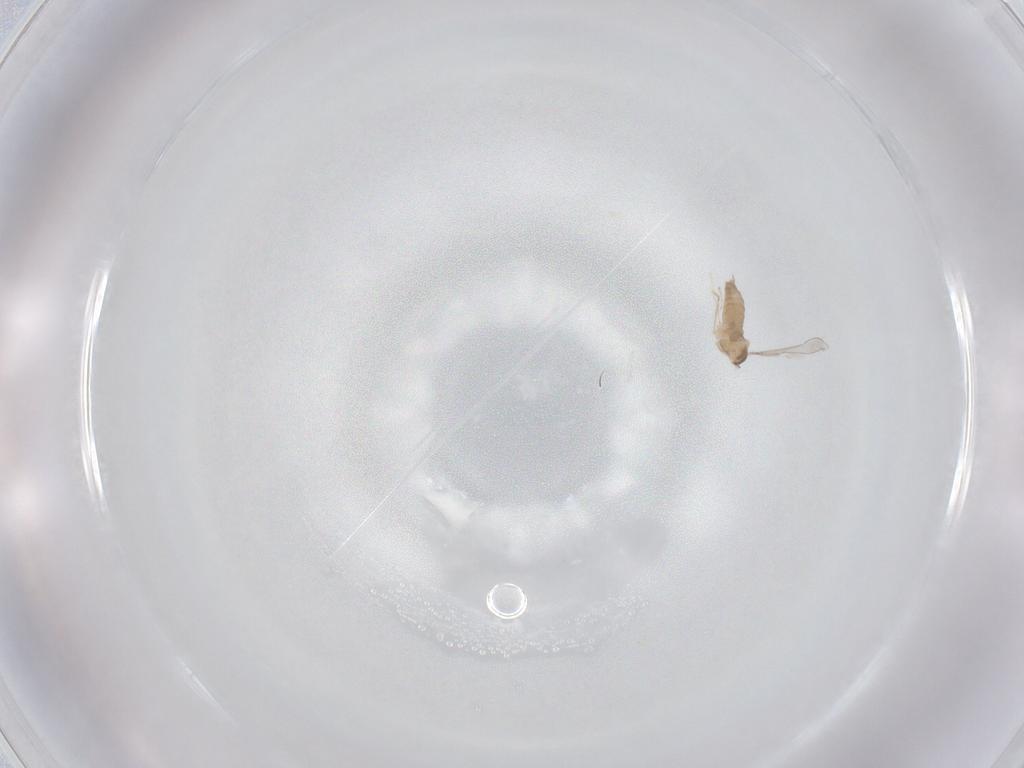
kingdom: Animalia
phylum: Arthropoda
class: Insecta
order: Diptera
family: Cecidomyiidae
